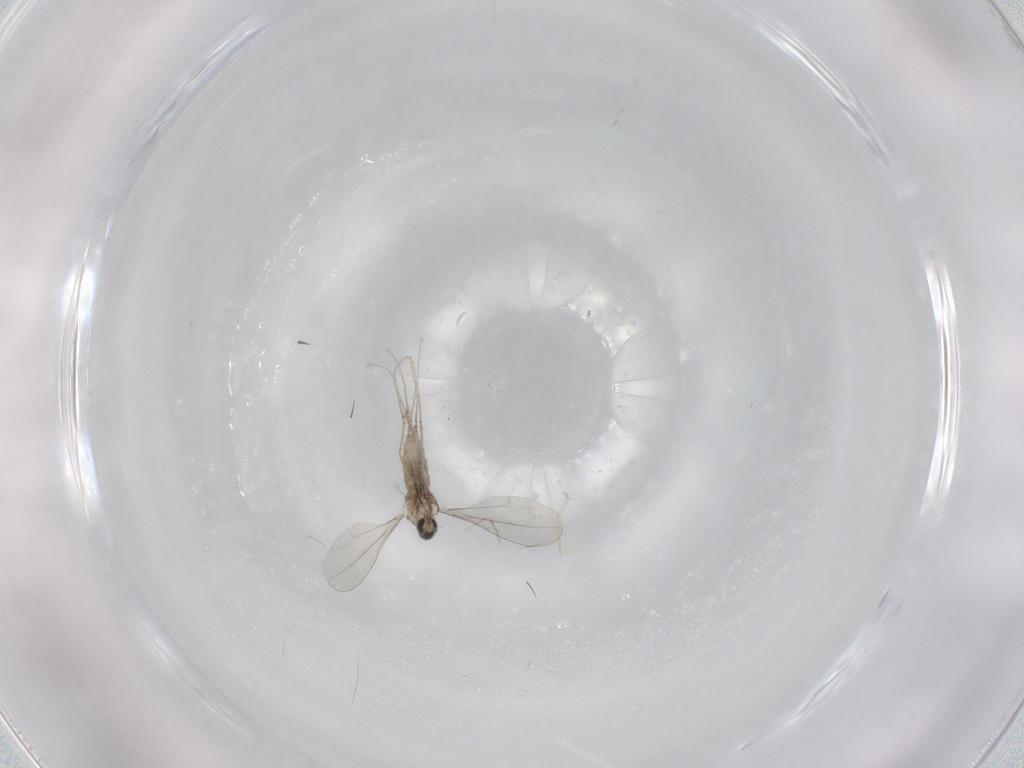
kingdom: Animalia
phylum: Arthropoda
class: Insecta
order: Diptera
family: Cecidomyiidae
